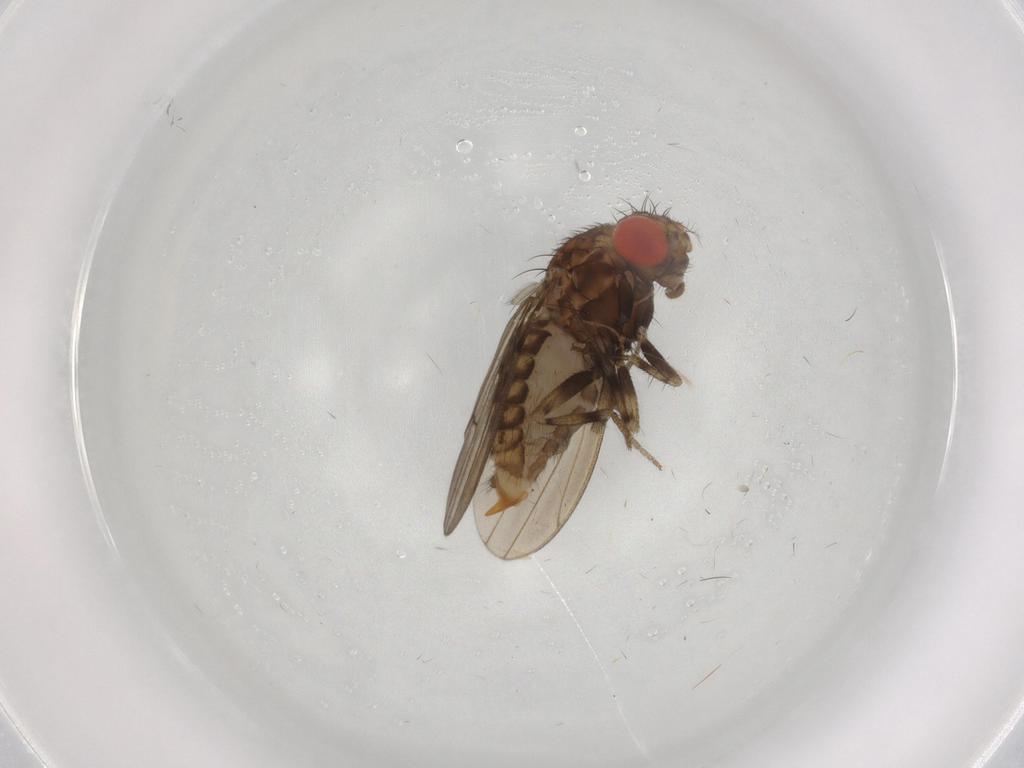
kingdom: Animalia
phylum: Arthropoda
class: Insecta
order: Diptera
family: Drosophilidae
